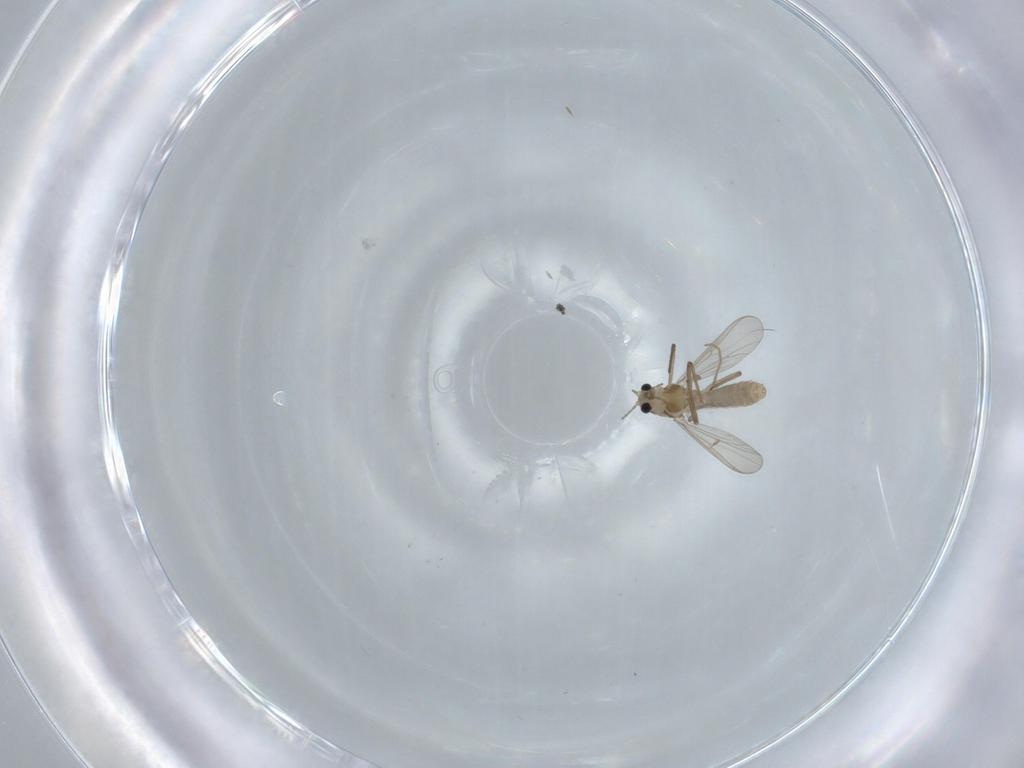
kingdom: Animalia
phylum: Arthropoda
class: Insecta
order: Diptera
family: Cecidomyiidae
